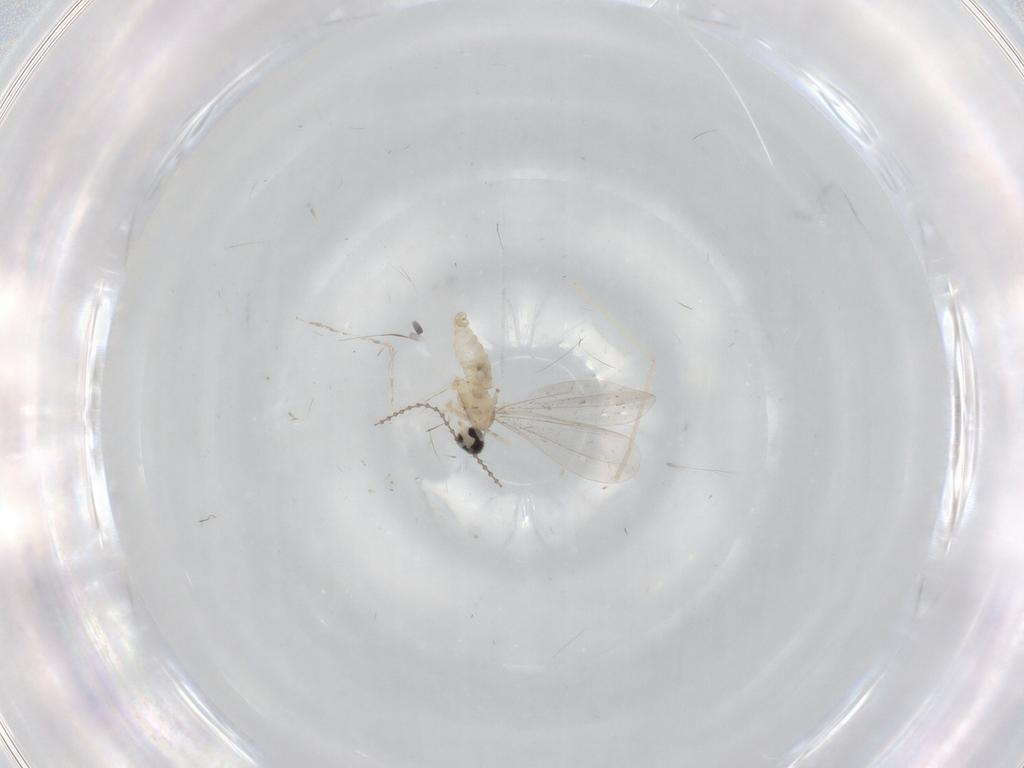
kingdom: Animalia
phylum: Arthropoda
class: Insecta
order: Diptera
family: Cecidomyiidae
